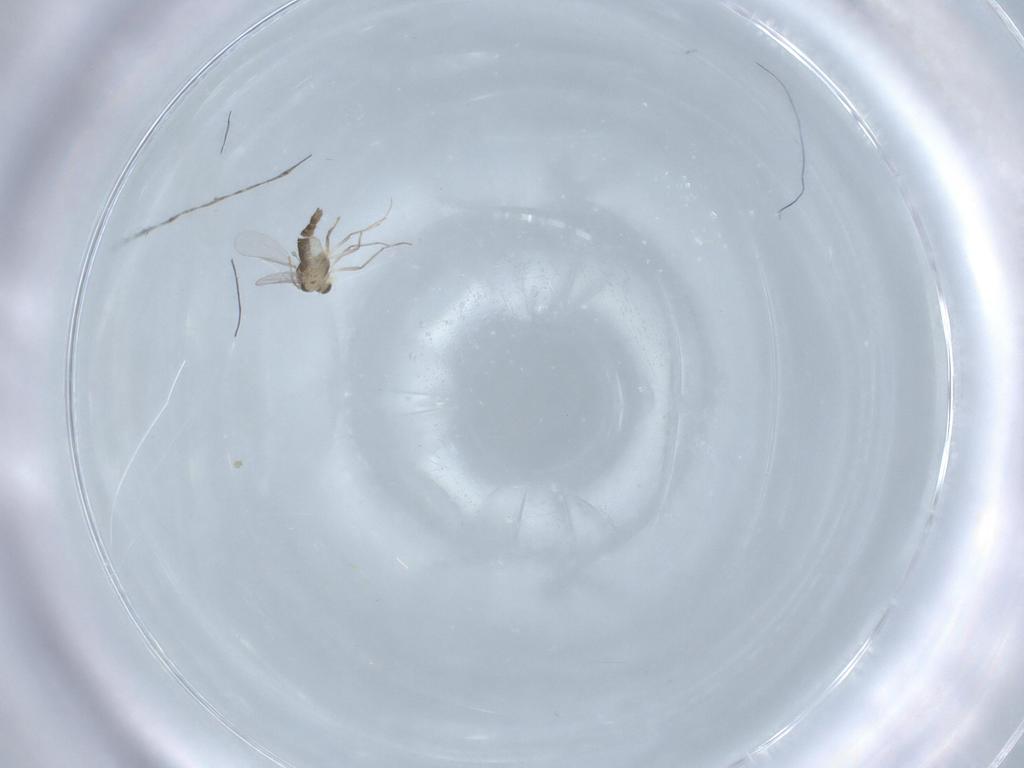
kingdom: Animalia
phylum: Arthropoda
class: Insecta
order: Diptera
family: Chironomidae
